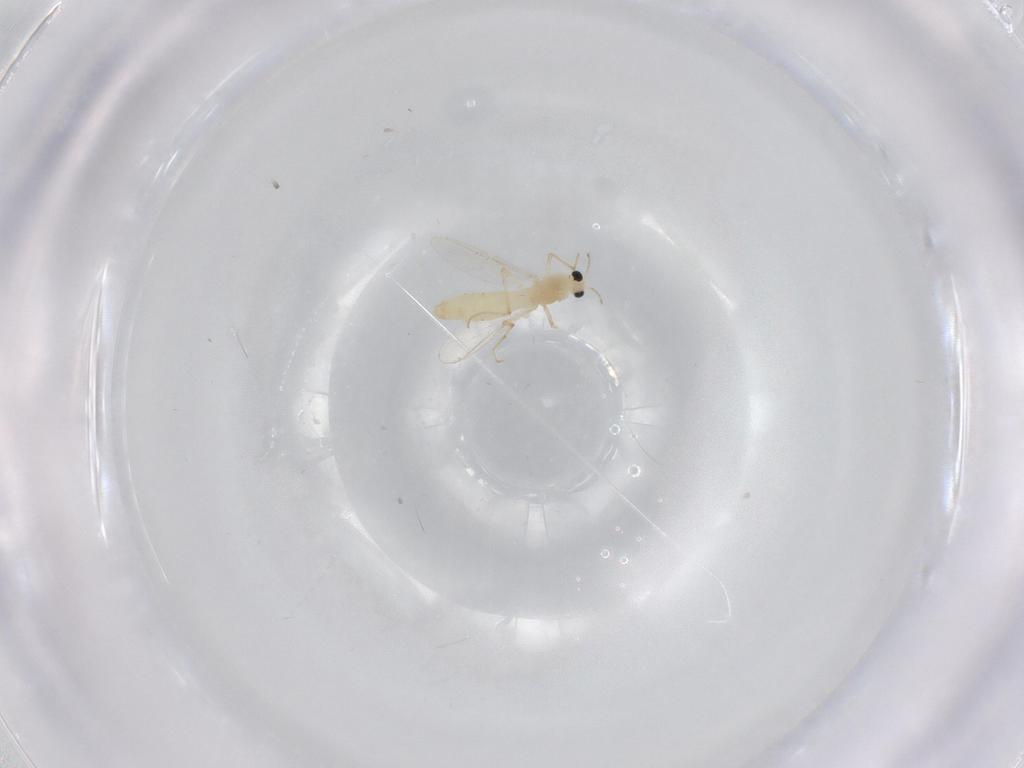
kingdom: Animalia
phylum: Arthropoda
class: Insecta
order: Diptera
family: Chironomidae
